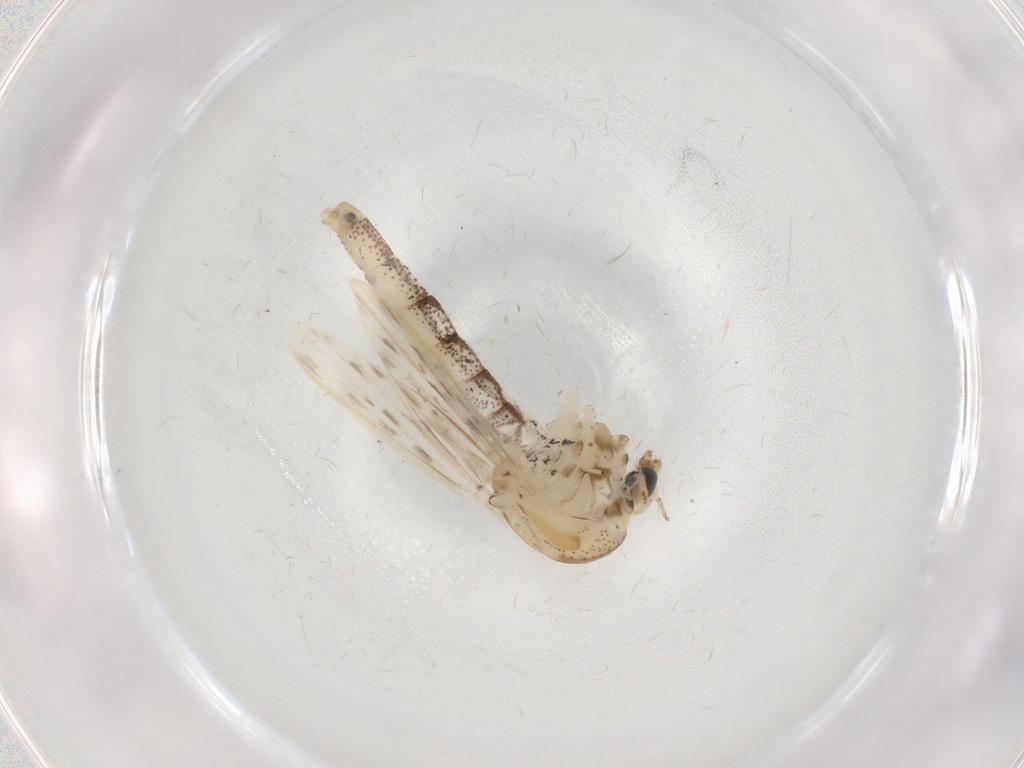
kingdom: Animalia
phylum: Arthropoda
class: Insecta
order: Diptera
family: Chaoboridae
